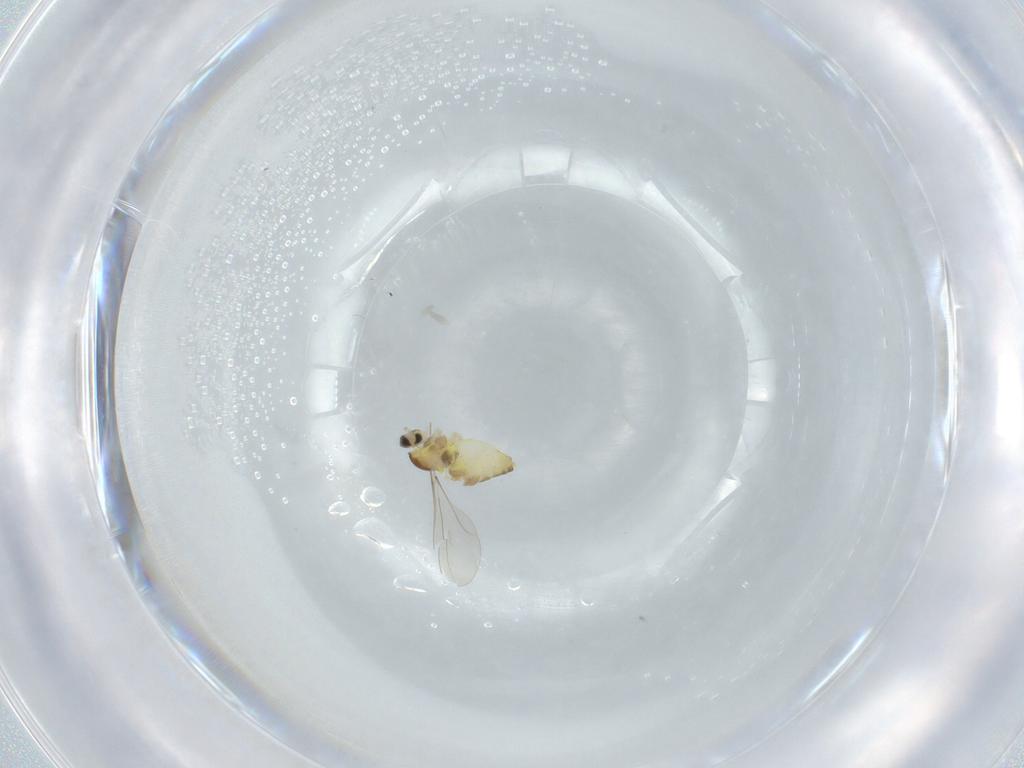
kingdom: Animalia
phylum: Arthropoda
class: Insecta
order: Diptera
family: Cecidomyiidae
